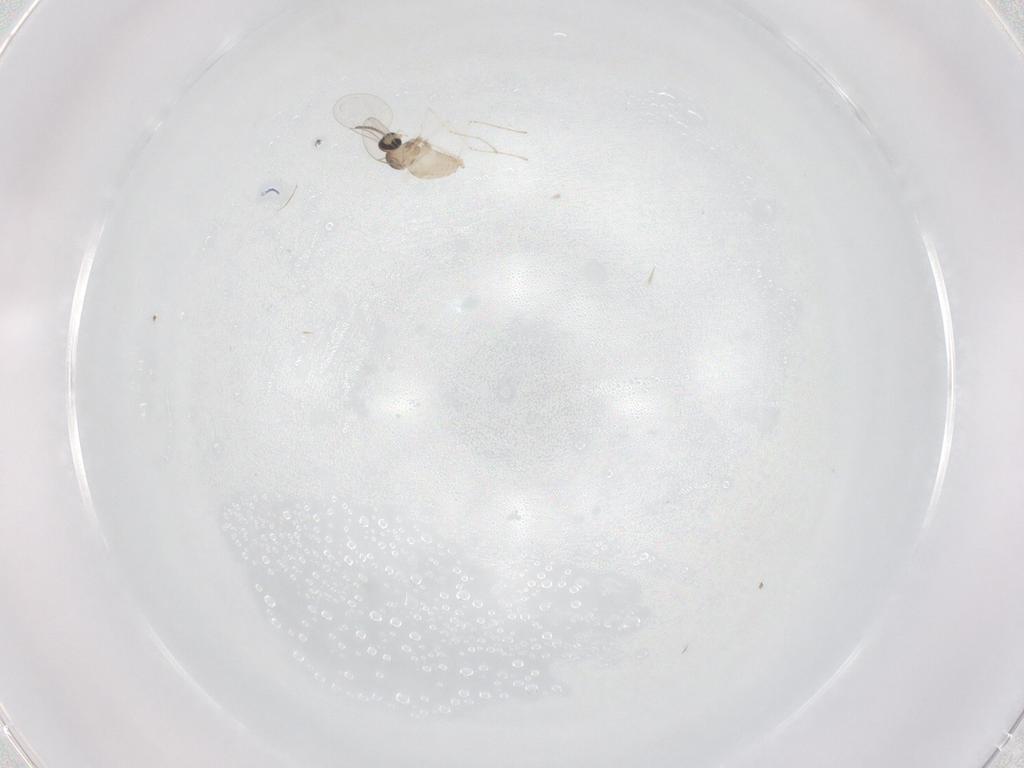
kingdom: Animalia
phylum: Arthropoda
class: Insecta
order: Diptera
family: Cecidomyiidae
